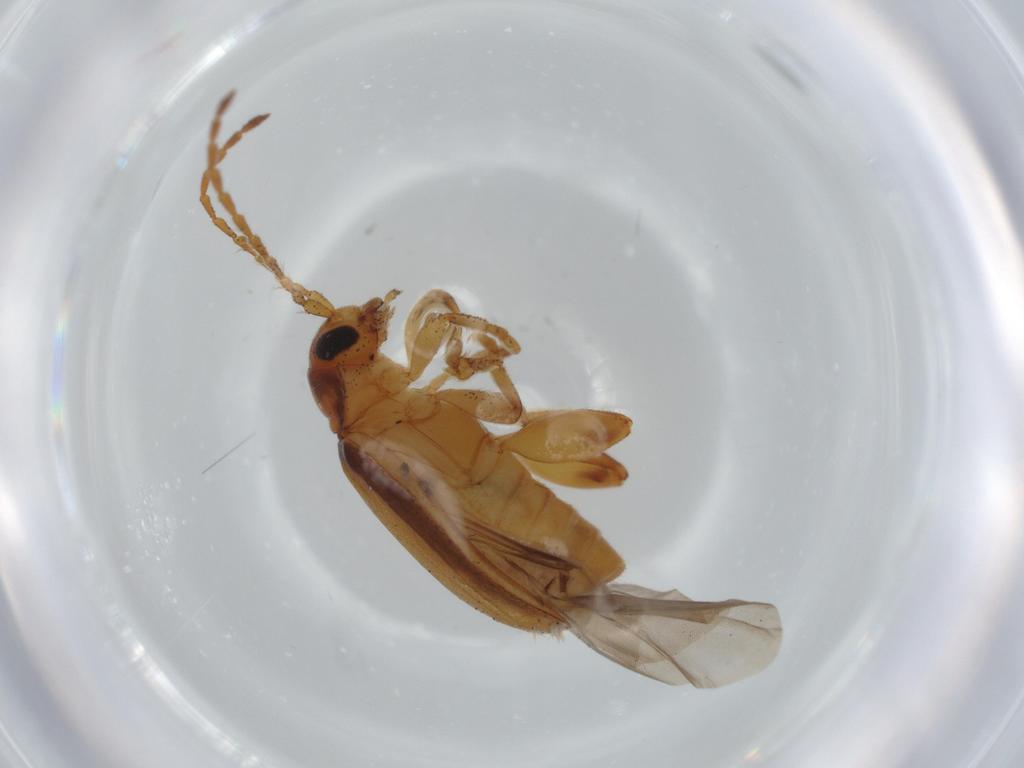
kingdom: Animalia
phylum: Arthropoda
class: Insecta
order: Coleoptera
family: Chrysomelidae
